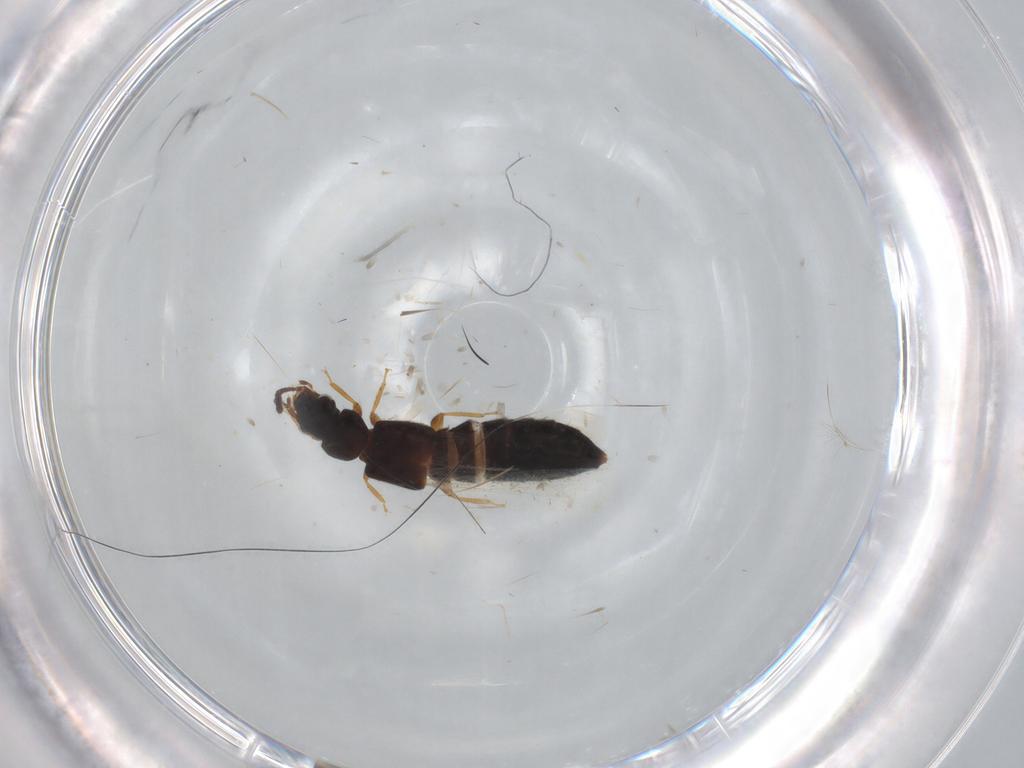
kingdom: Animalia
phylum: Arthropoda
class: Insecta
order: Coleoptera
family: Staphylinidae
